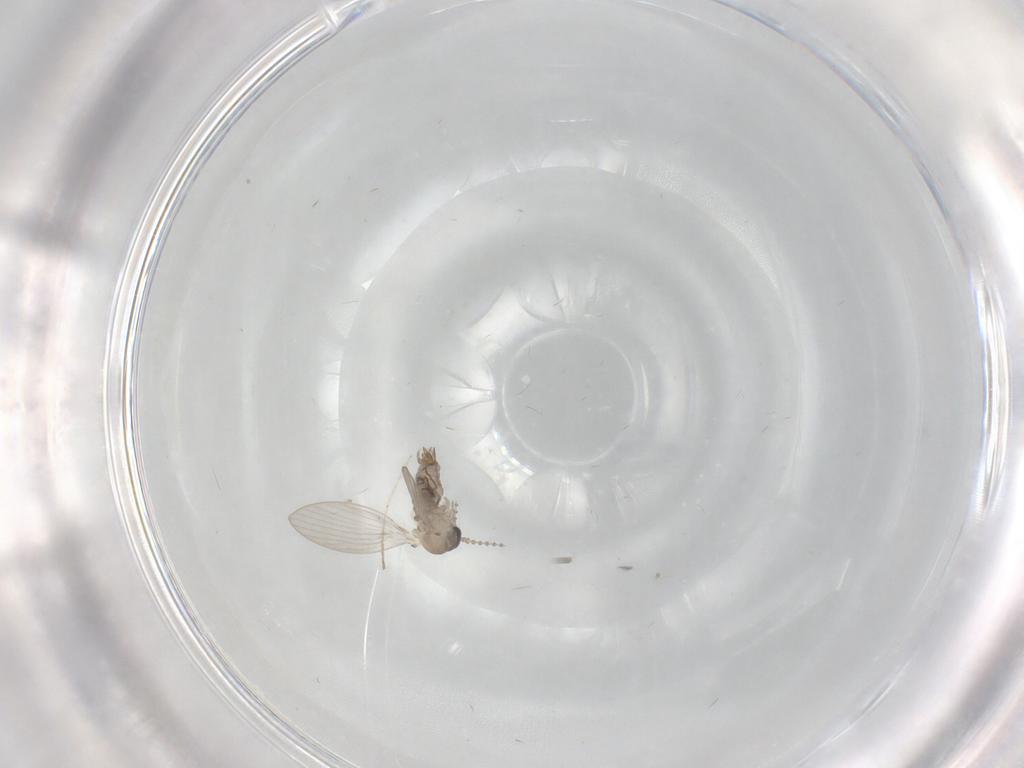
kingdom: Animalia
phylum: Arthropoda
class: Insecta
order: Diptera
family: Psychodidae
